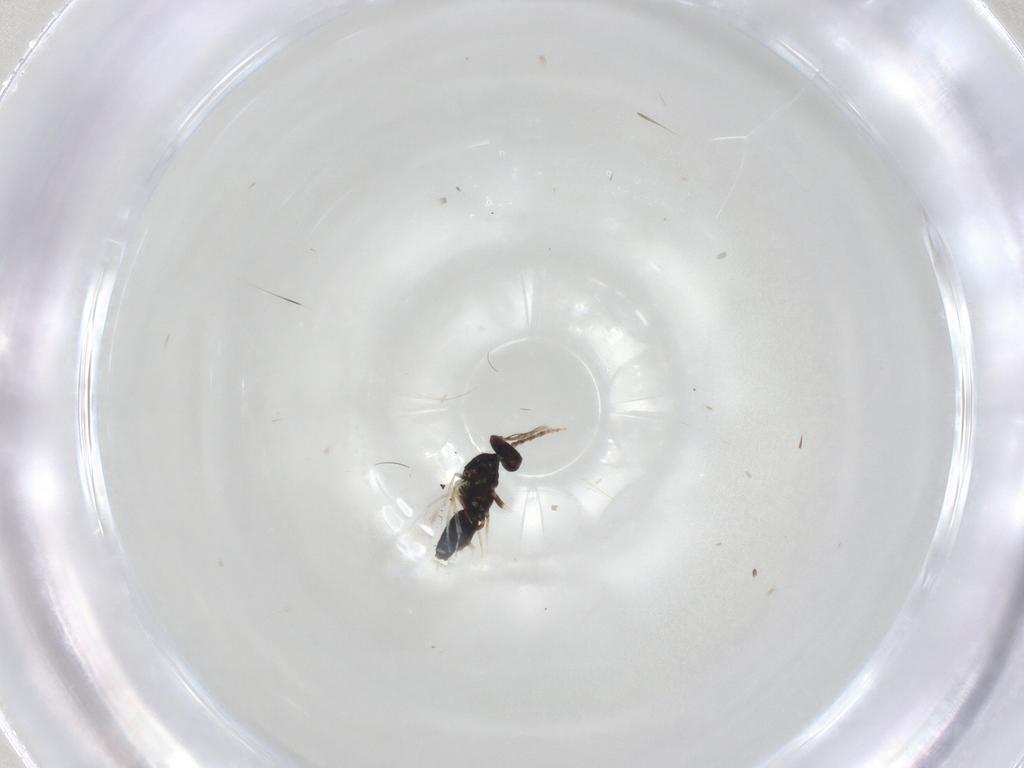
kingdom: Animalia
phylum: Arthropoda
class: Insecta
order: Hymenoptera
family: Eulophidae
